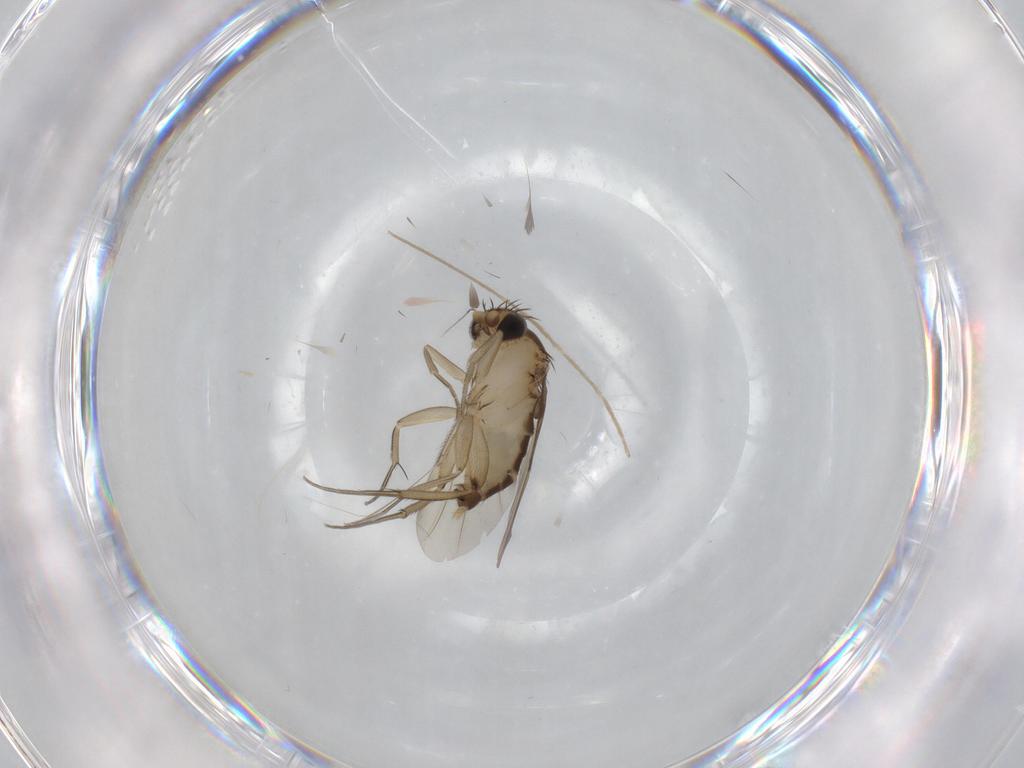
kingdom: Animalia
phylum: Arthropoda
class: Insecta
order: Diptera
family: Phoridae
